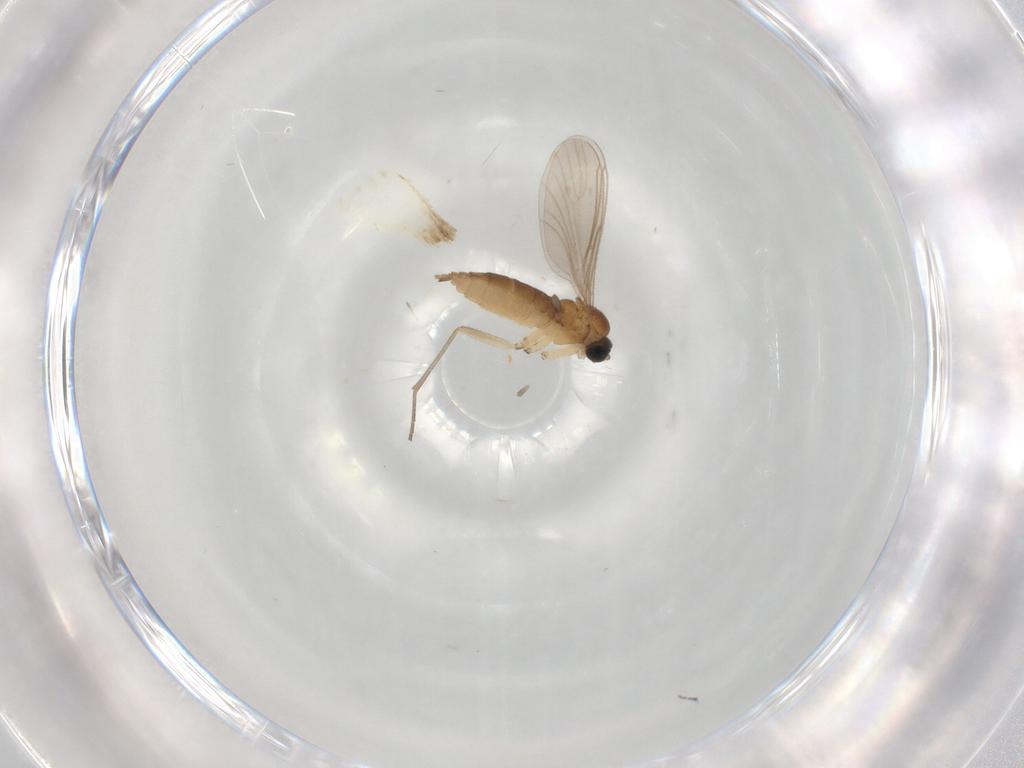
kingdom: Animalia
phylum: Arthropoda
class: Insecta
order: Diptera
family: Sciaridae
